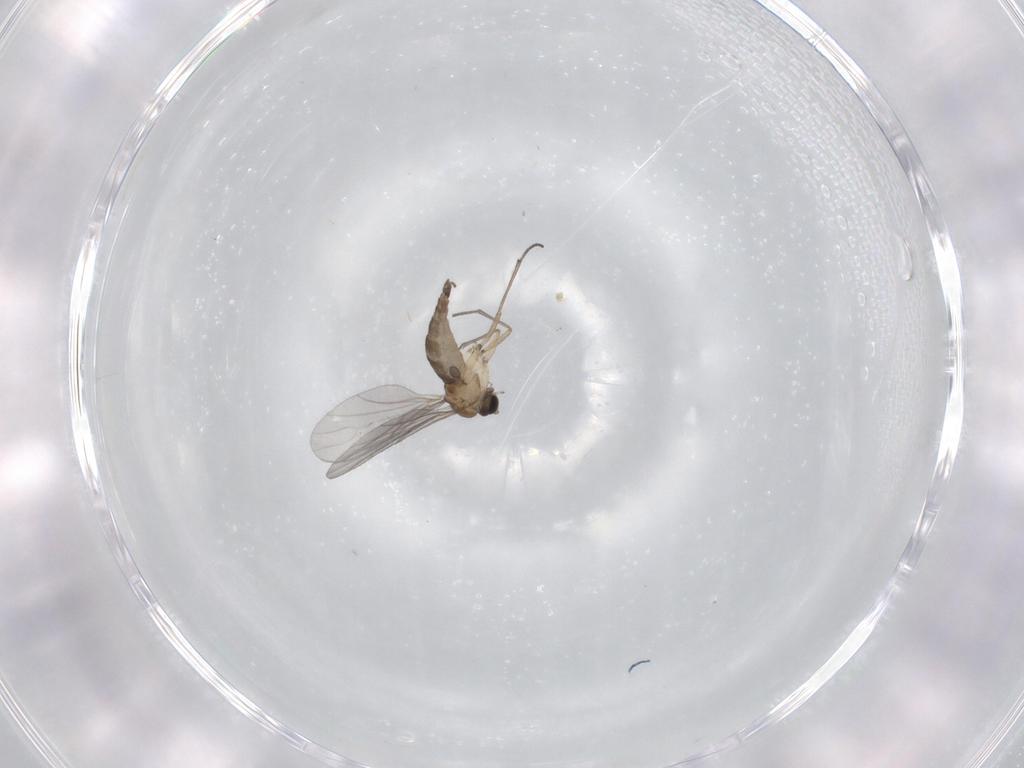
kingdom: Animalia
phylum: Arthropoda
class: Insecta
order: Diptera
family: Sciaridae
